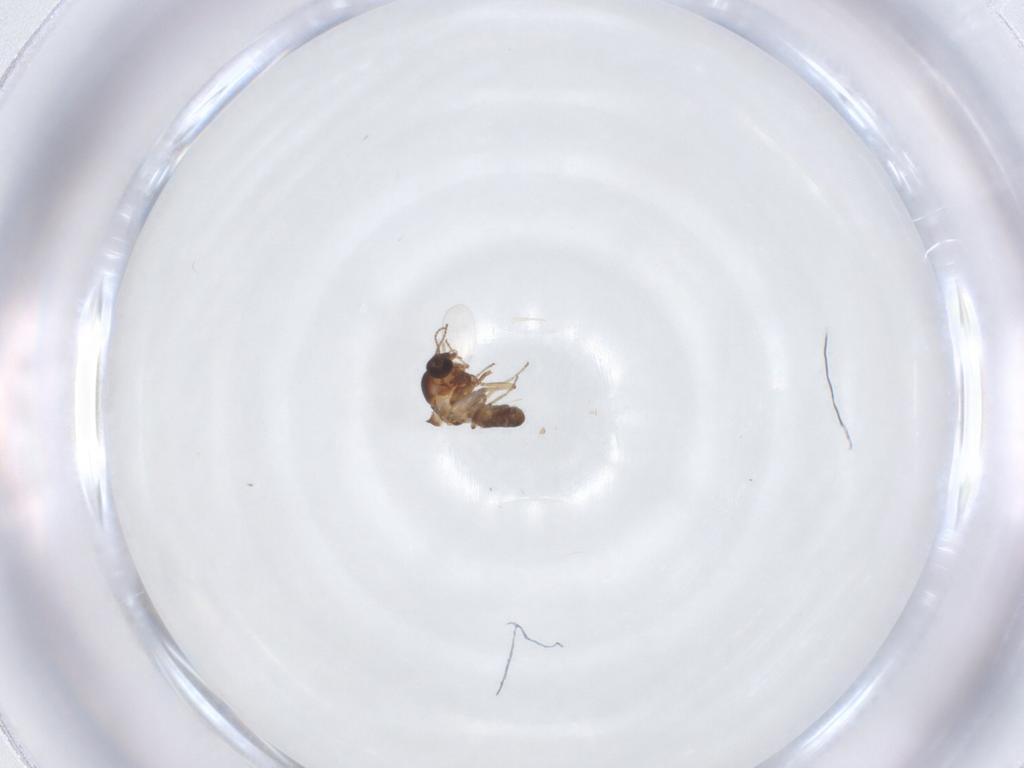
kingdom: Animalia
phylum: Arthropoda
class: Insecta
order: Diptera
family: Ceratopogonidae
